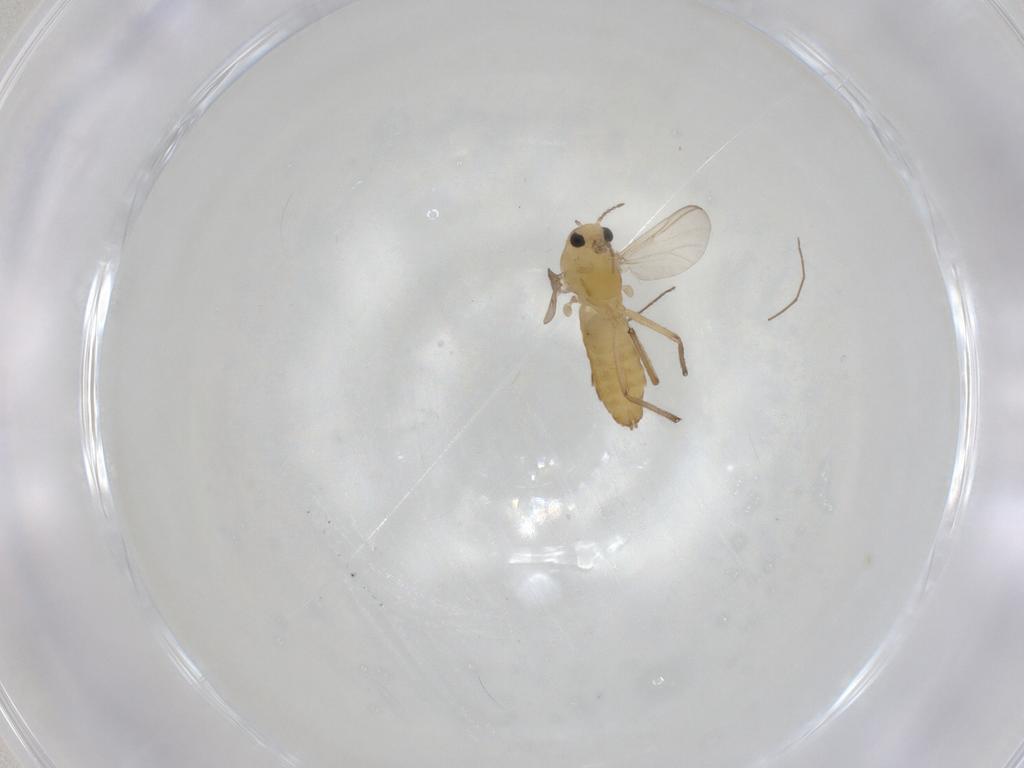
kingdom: Animalia
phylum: Arthropoda
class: Insecta
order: Diptera
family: Chironomidae
